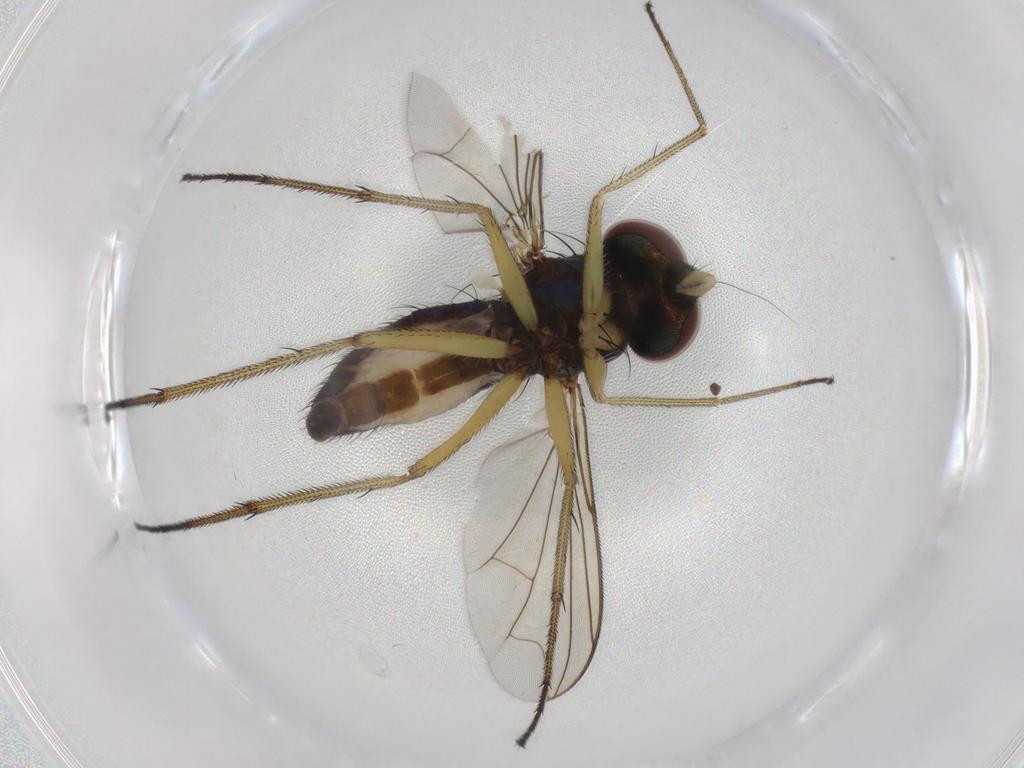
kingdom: Animalia
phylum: Arthropoda
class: Insecta
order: Diptera
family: Dolichopodidae
